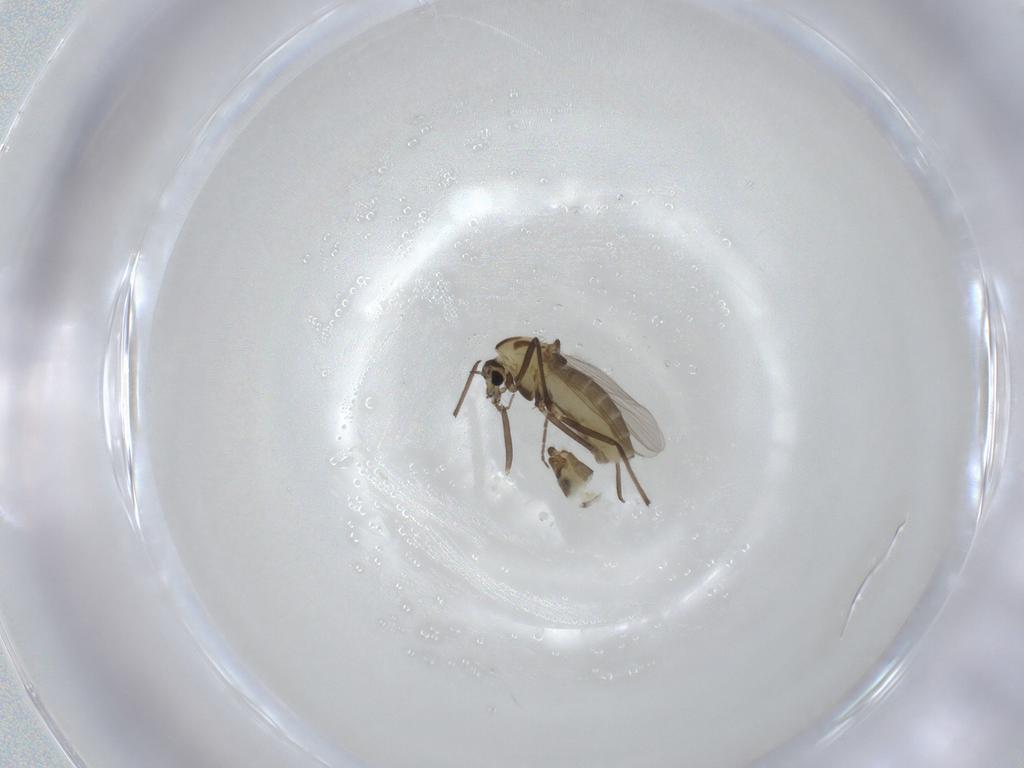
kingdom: Animalia
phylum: Arthropoda
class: Insecta
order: Diptera
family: Chironomidae
